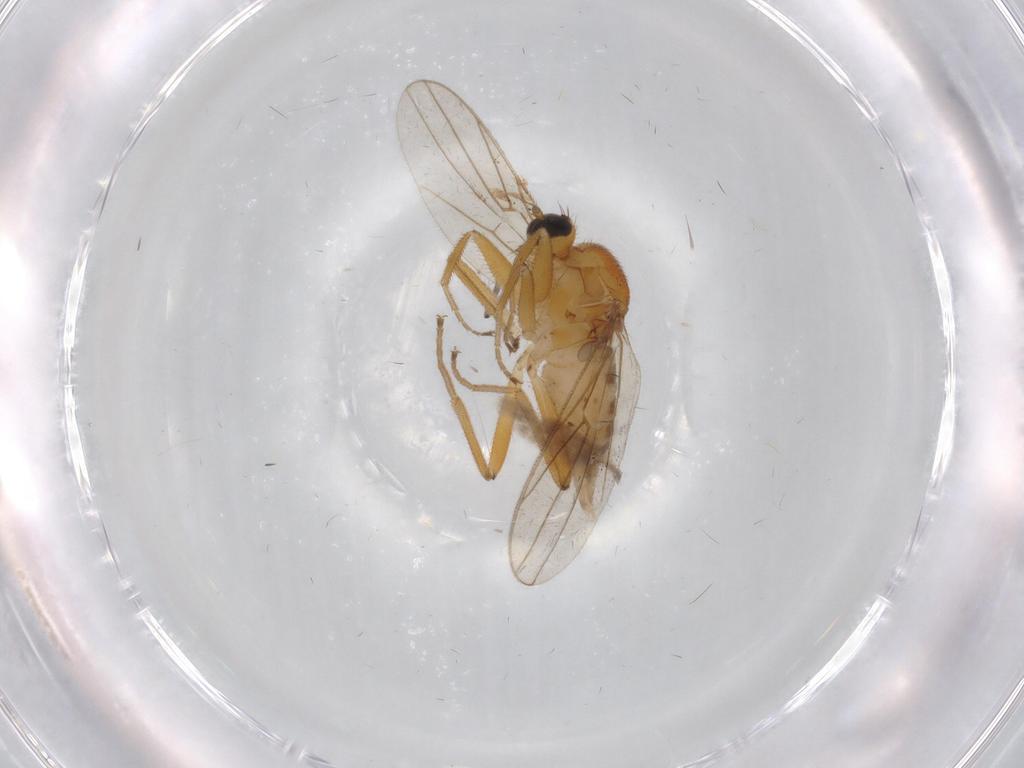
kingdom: Animalia
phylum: Arthropoda
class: Insecta
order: Diptera
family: Hybotidae
